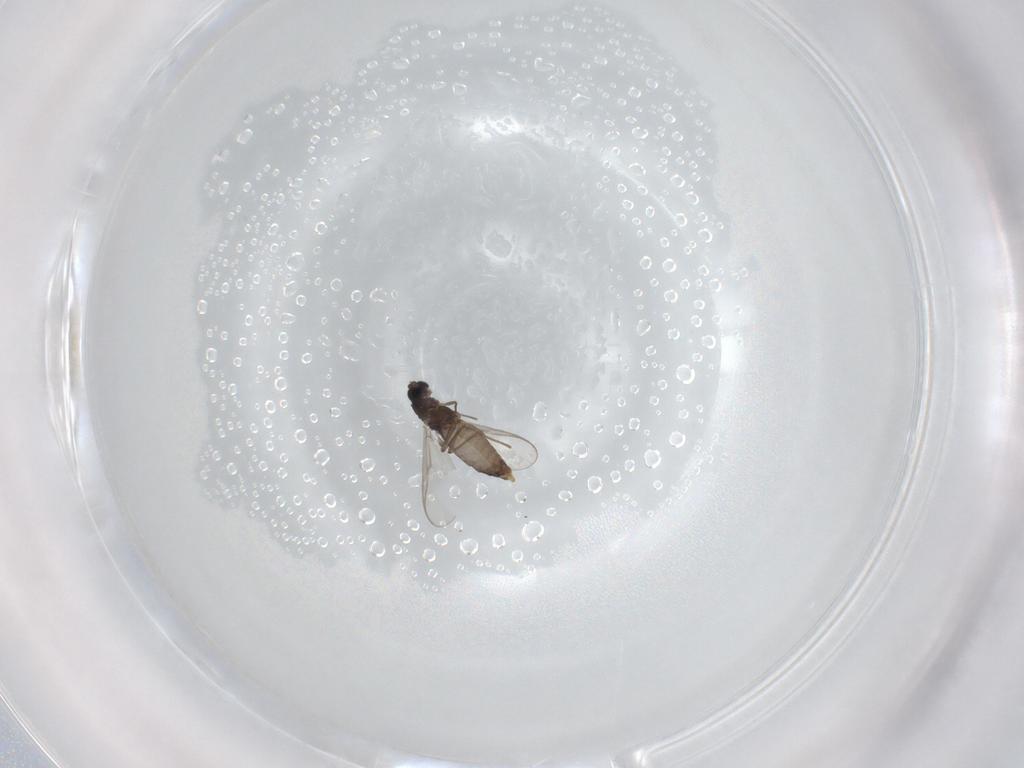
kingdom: Animalia
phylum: Arthropoda
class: Insecta
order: Diptera
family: Chironomidae
